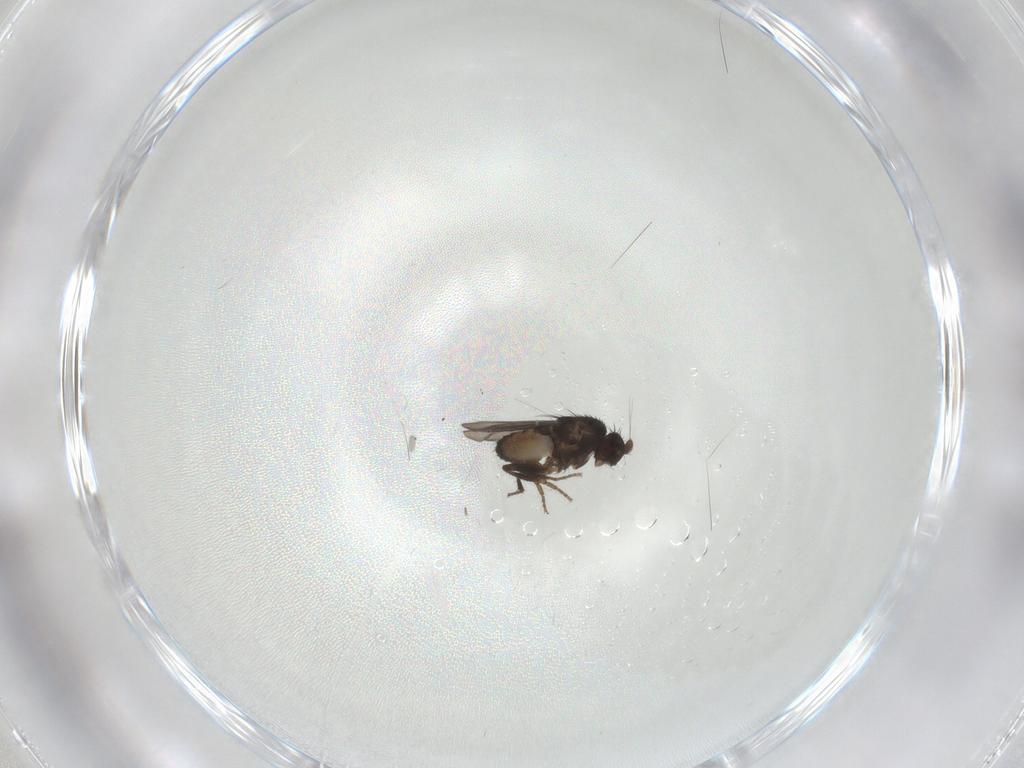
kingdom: Animalia
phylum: Arthropoda
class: Insecta
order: Diptera
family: Sphaeroceridae
